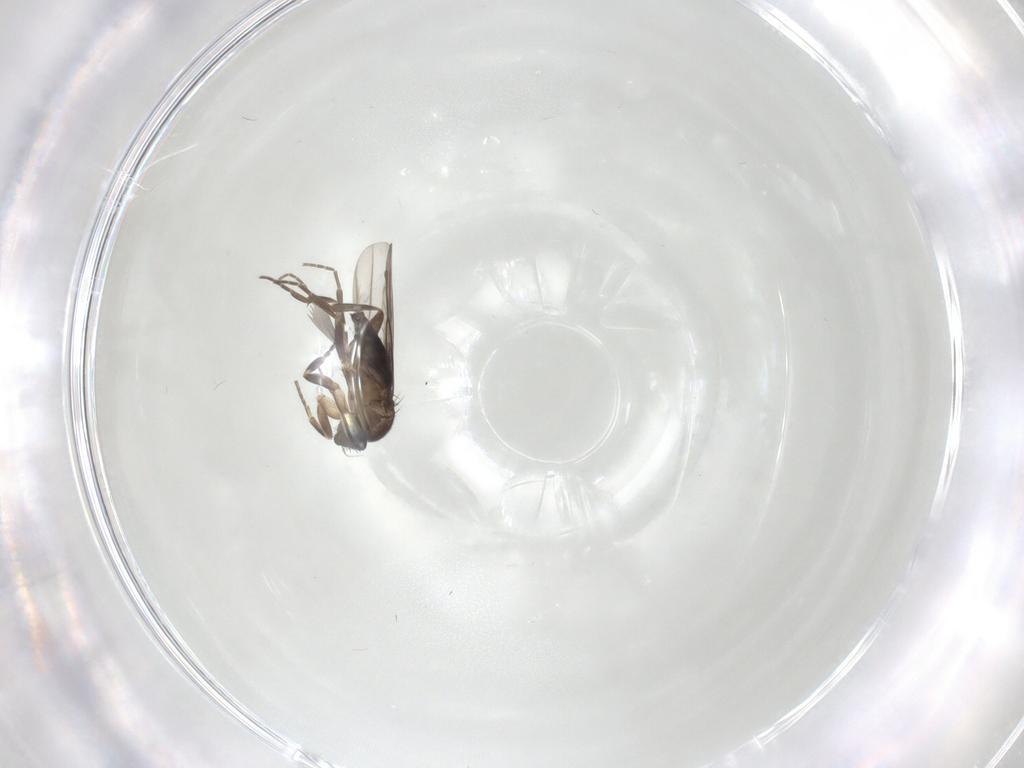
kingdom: Animalia
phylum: Arthropoda
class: Insecta
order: Diptera
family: Phoridae
